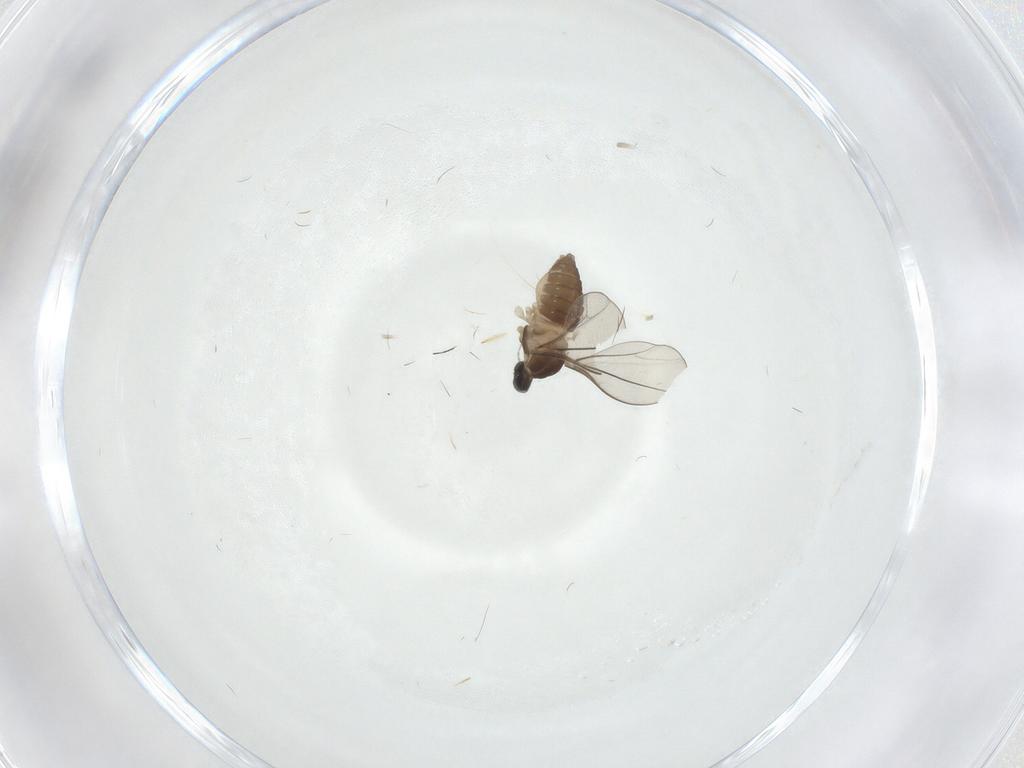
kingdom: Animalia
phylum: Arthropoda
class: Insecta
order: Diptera
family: Cecidomyiidae
